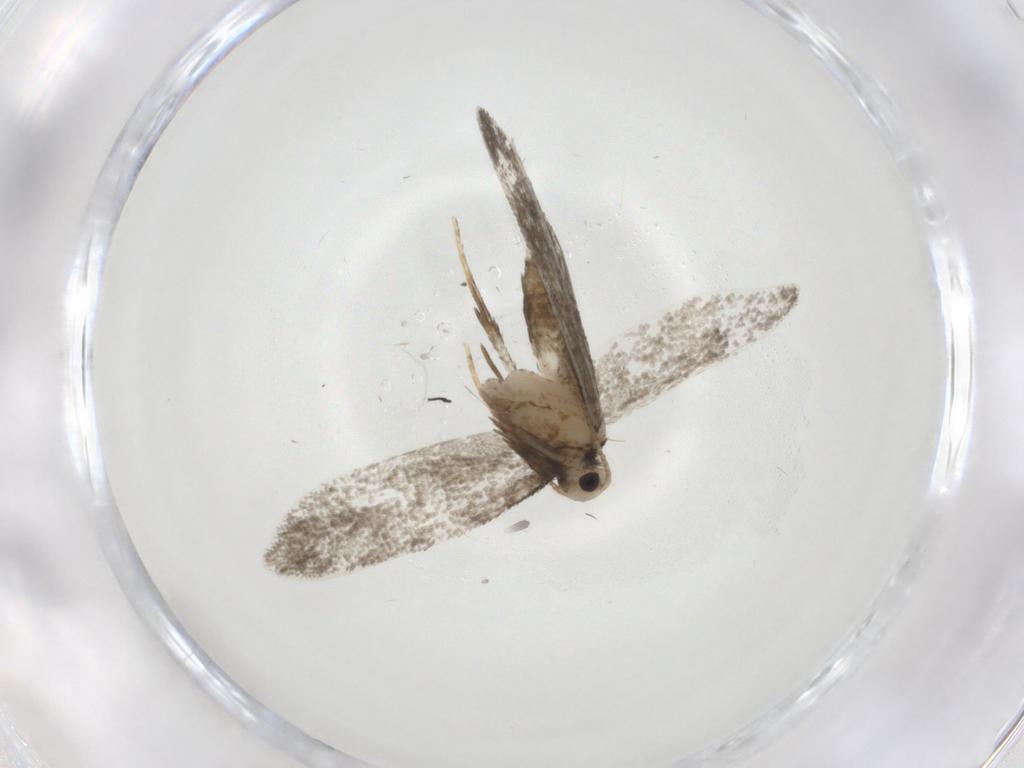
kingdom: Animalia
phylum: Arthropoda
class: Insecta
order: Lepidoptera
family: Psychidae
